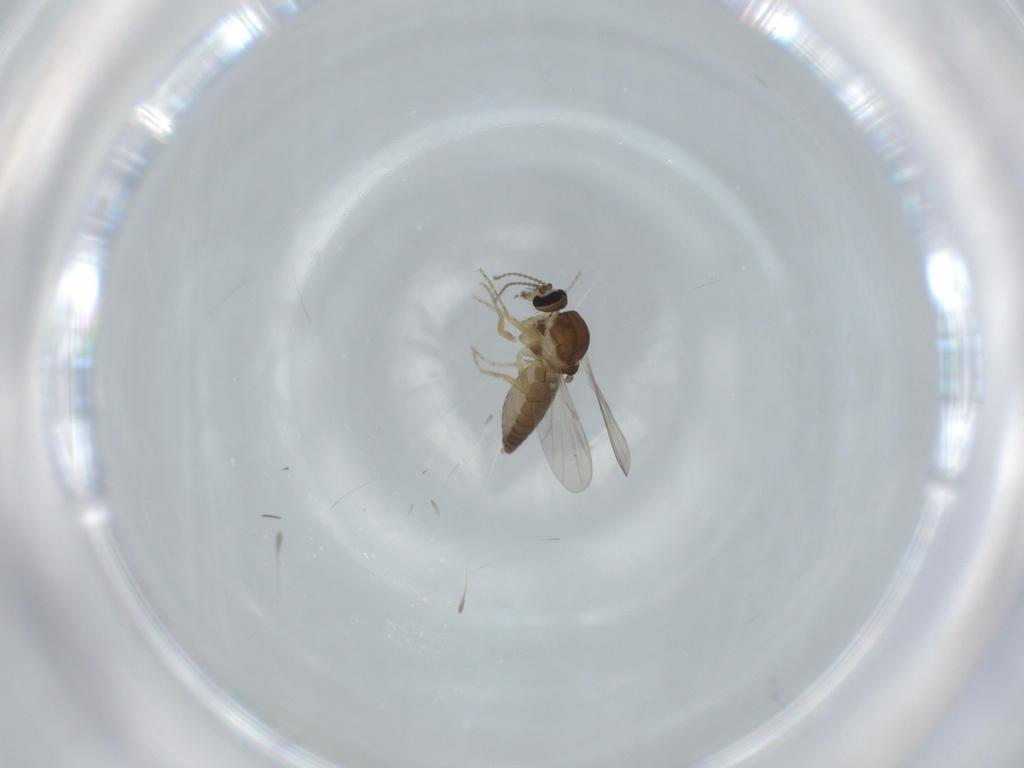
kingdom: Animalia
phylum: Arthropoda
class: Insecta
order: Diptera
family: Ceratopogonidae
